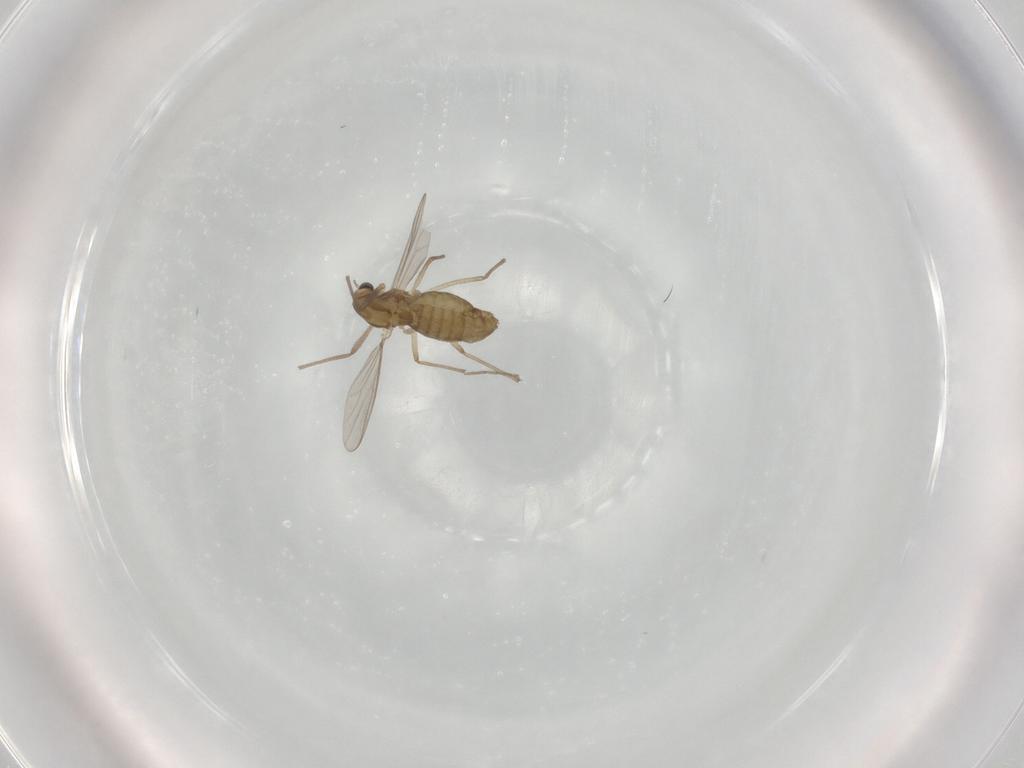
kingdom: Animalia
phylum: Arthropoda
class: Insecta
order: Diptera
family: Chironomidae
